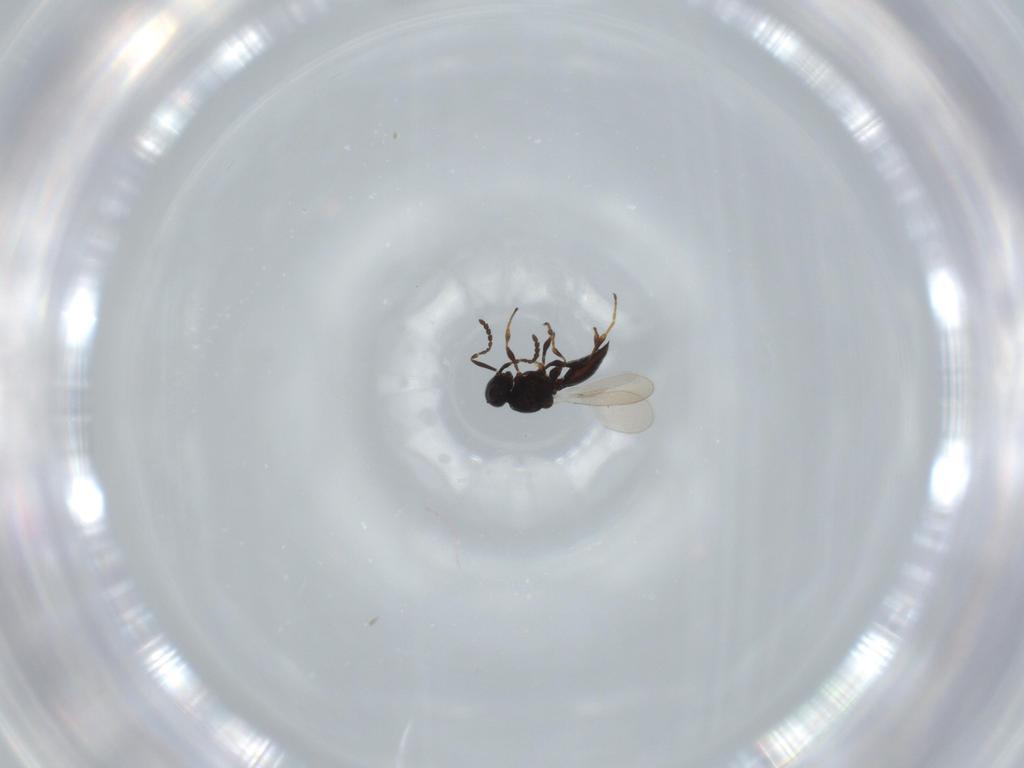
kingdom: Animalia
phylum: Arthropoda
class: Insecta
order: Hymenoptera
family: Platygastridae
